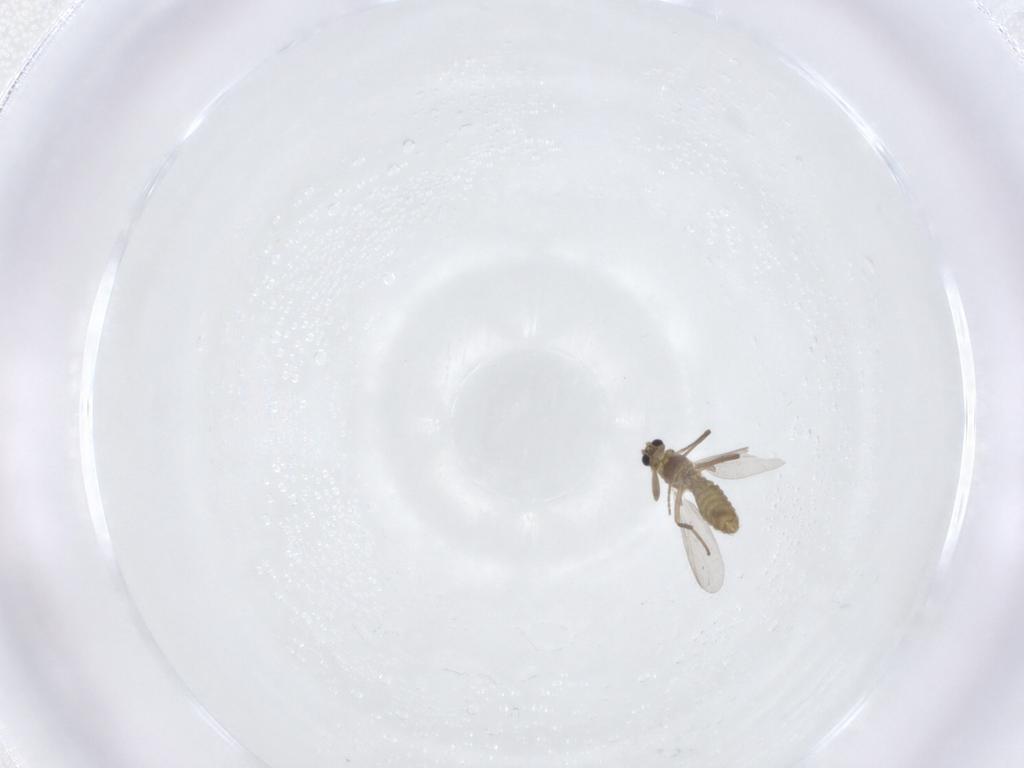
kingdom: Animalia
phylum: Arthropoda
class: Insecta
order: Diptera
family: Chironomidae
